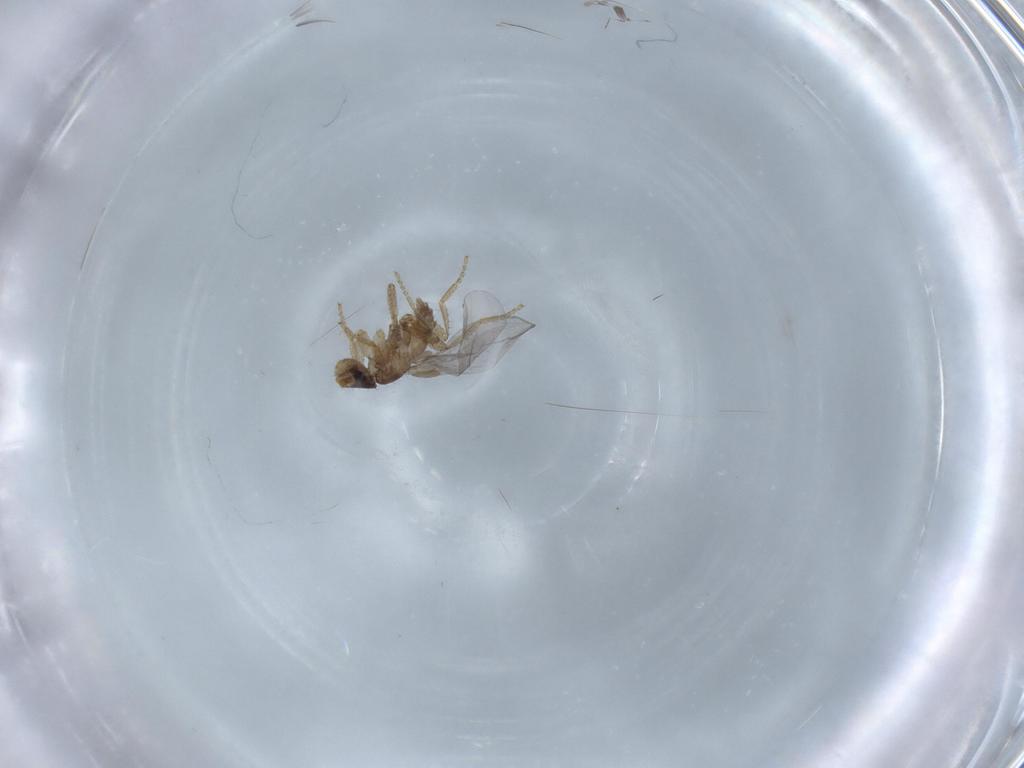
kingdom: Animalia
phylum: Arthropoda
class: Insecta
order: Diptera
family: Phoridae
